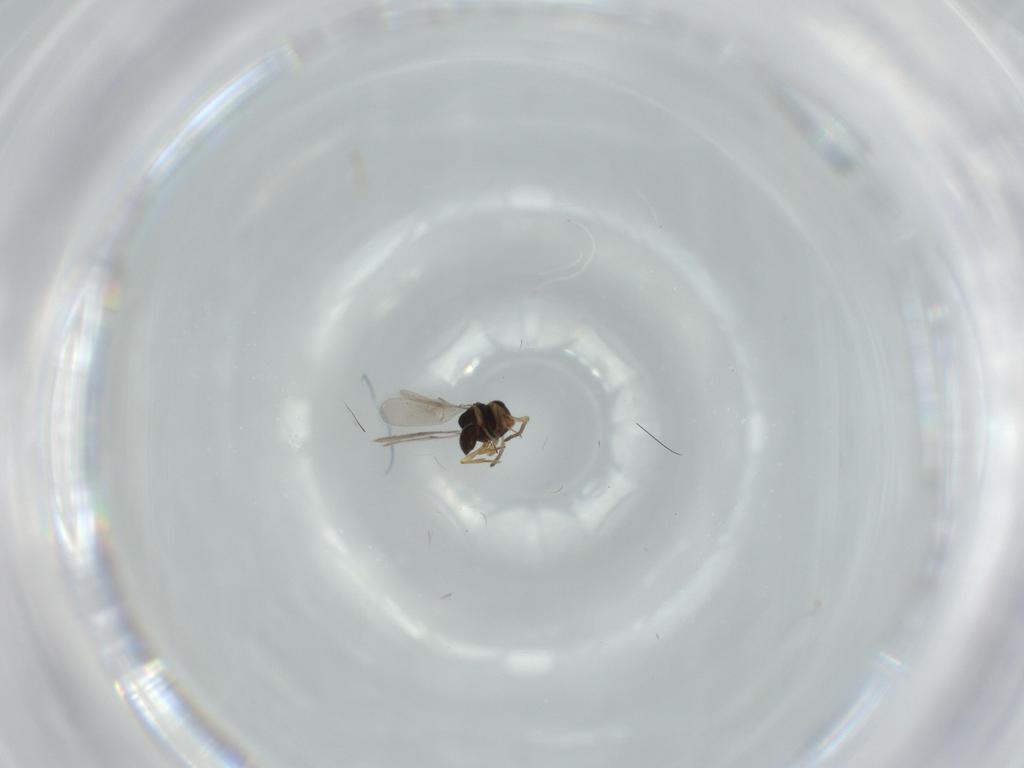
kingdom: Animalia
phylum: Arthropoda
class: Insecta
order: Hymenoptera
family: Scelionidae
